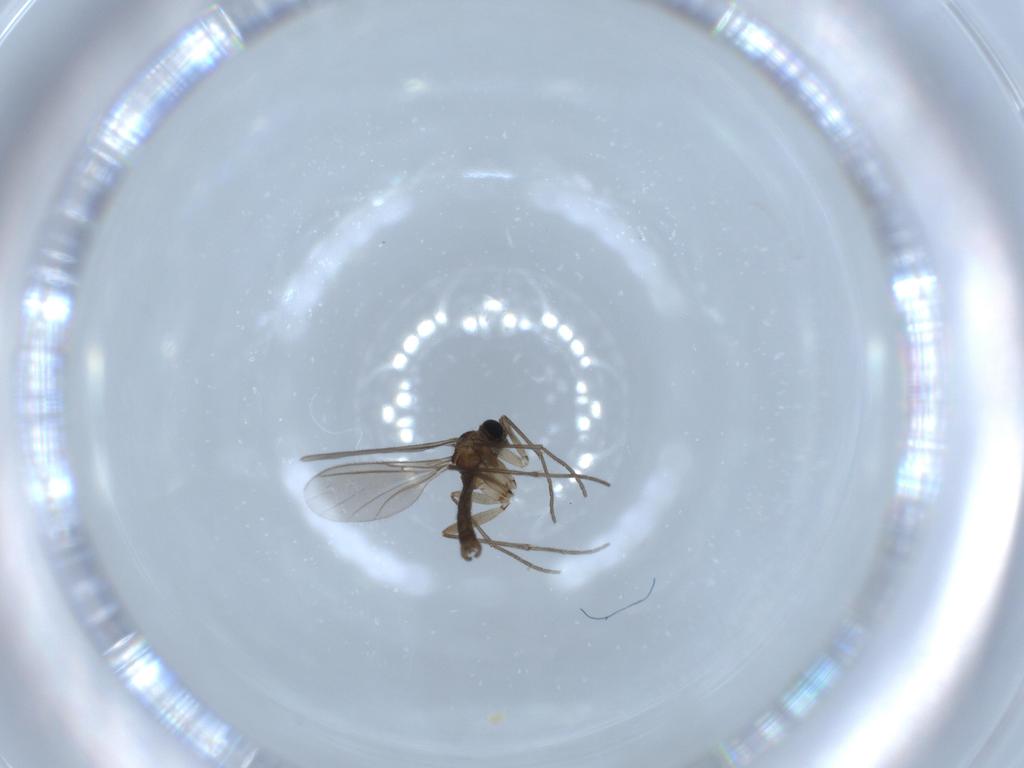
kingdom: Animalia
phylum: Arthropoda
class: Insecta
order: Diptera
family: Sciaridae
